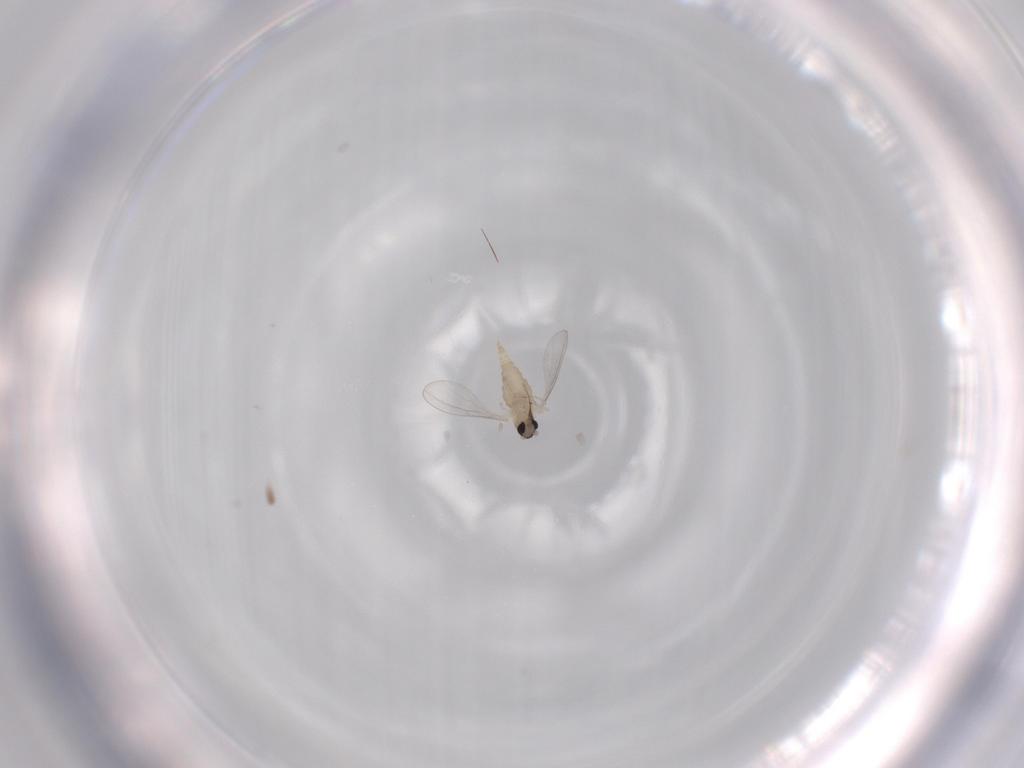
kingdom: Animalia
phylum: Arthropoda
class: Insecta
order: Diptera
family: Cecidomyiidae
